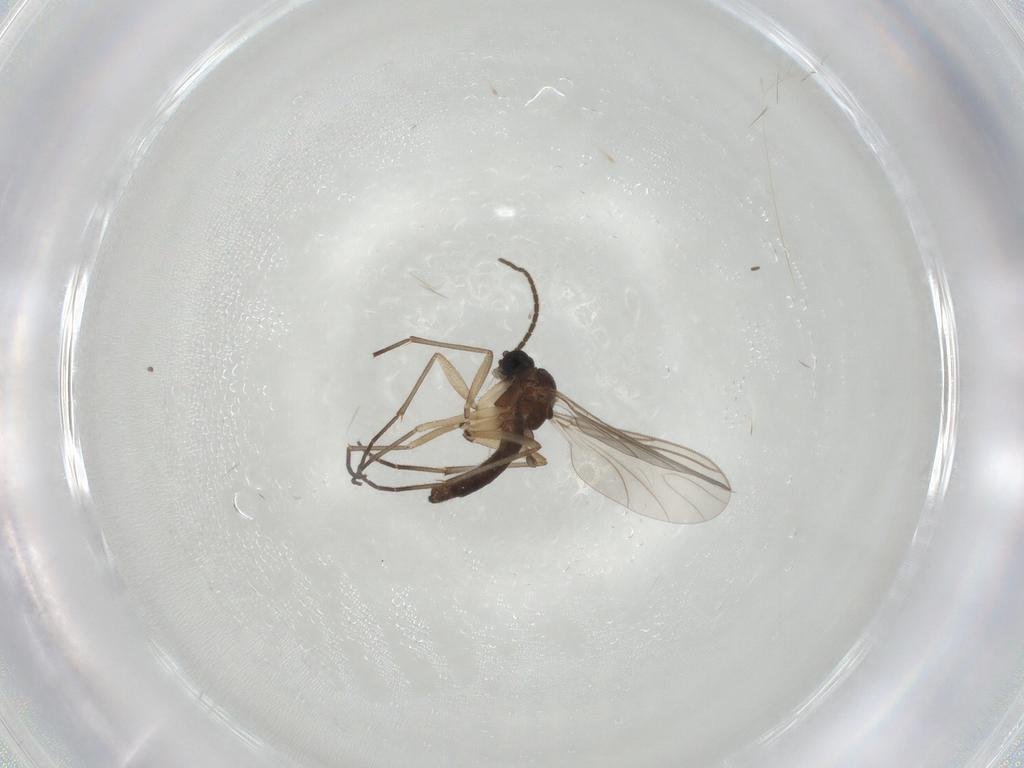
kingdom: Animalia
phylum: Arthropoda
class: Insecta
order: Diptera
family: Sciaridae
